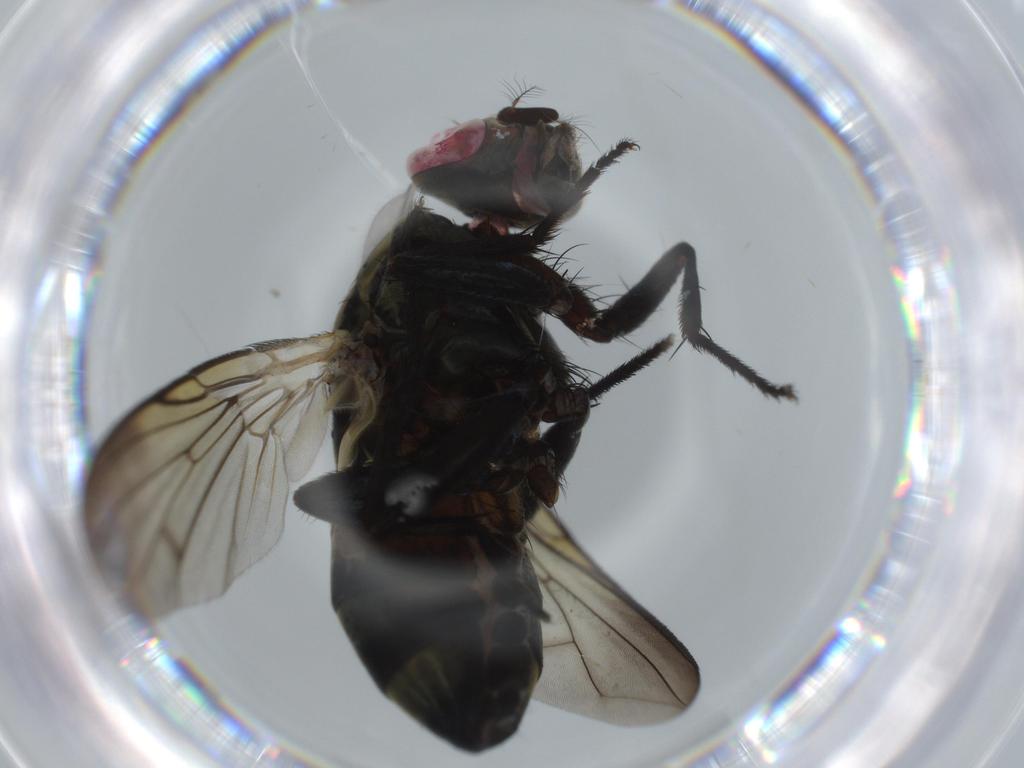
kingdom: Animalia
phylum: Arthropoda
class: Insecta
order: Diptera
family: Sarcophagidae
